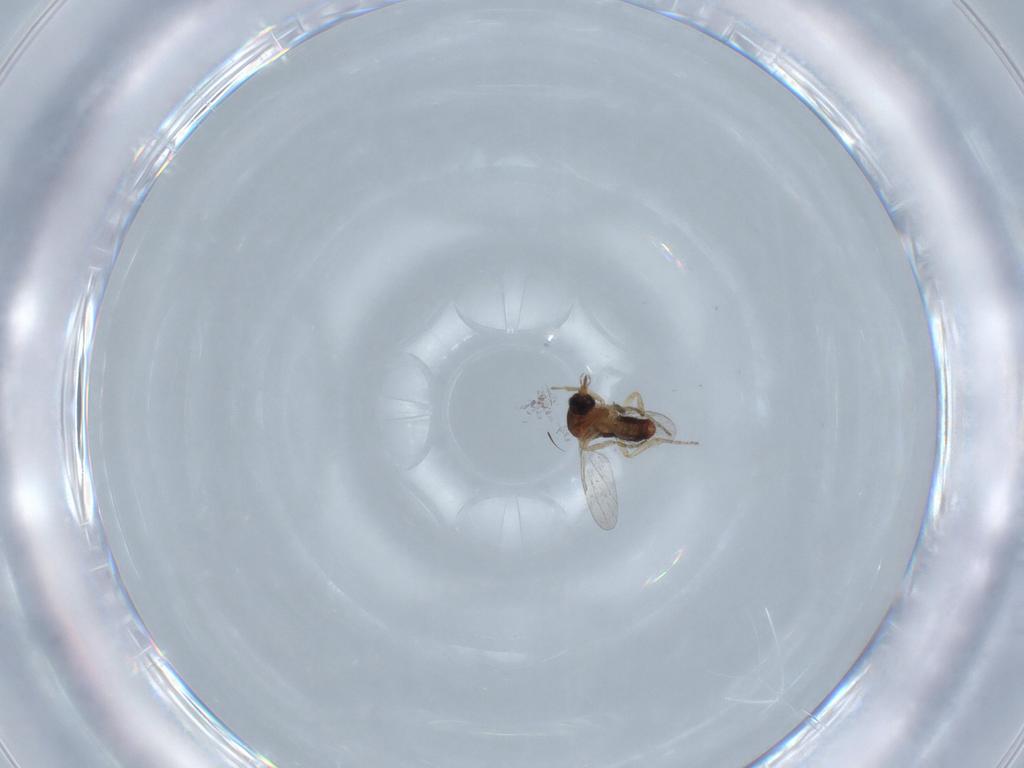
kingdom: Animalia
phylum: Arthropoda
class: Insecta
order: Diptera
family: Ceratopogonidae
